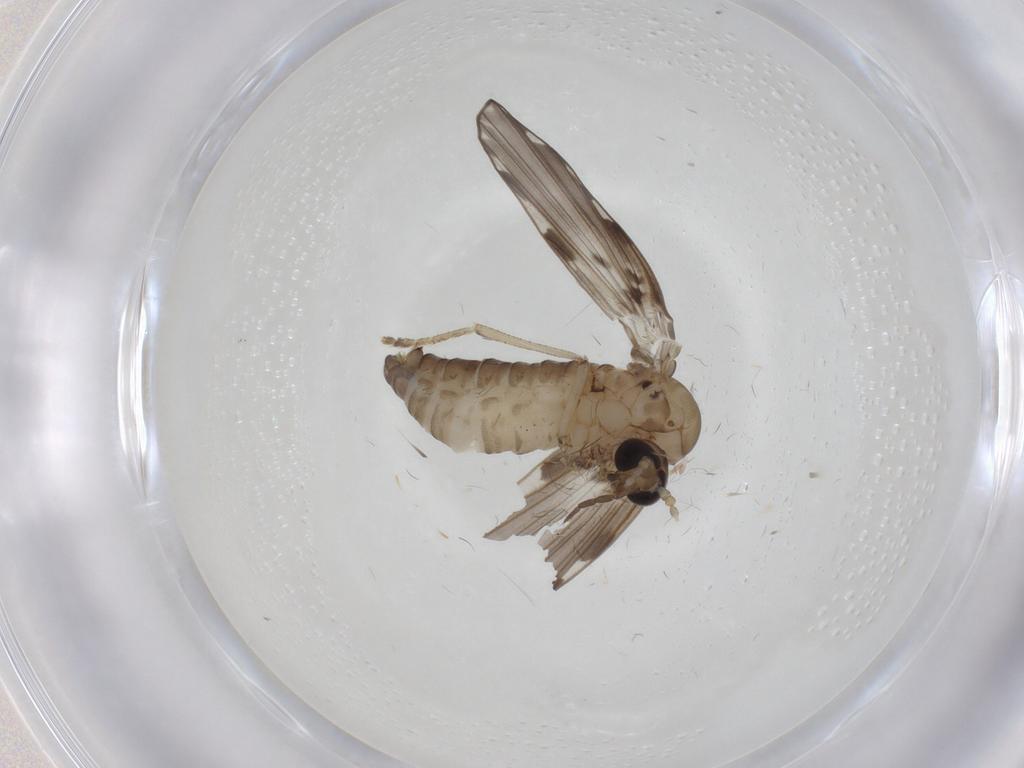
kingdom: Animalia
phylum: Arthropoda
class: Insecta
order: Diptera
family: Psychodidae
